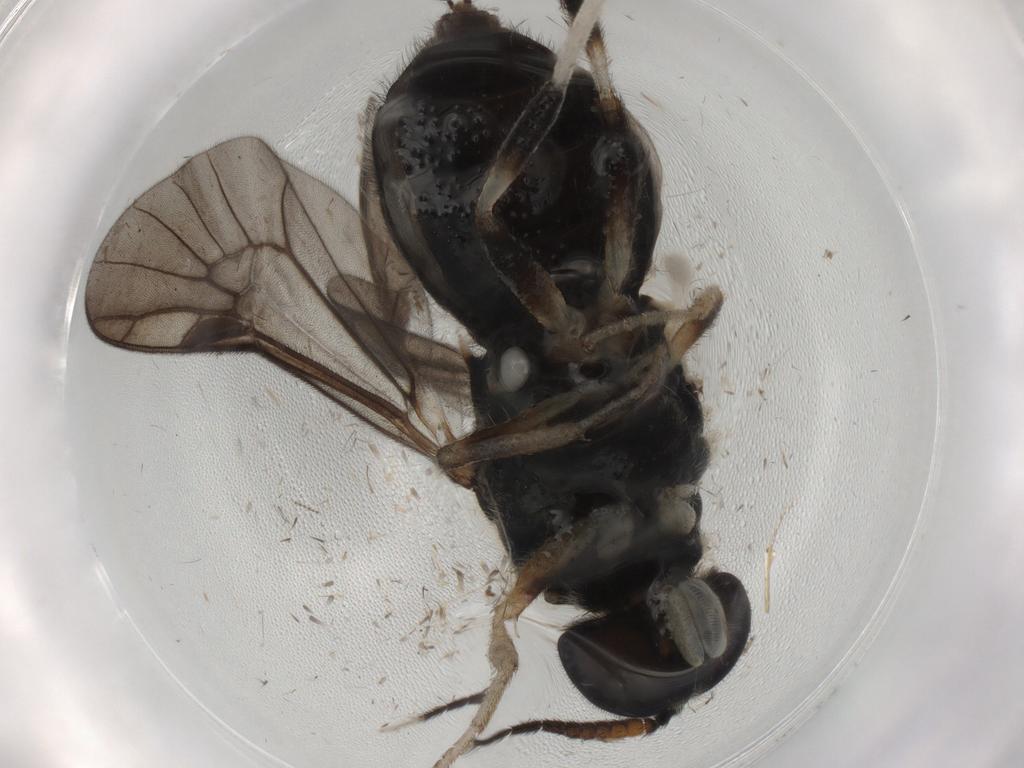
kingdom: Animalia
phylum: Arthropoda
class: Insecta
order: Diptera
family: Stratiomyidae
